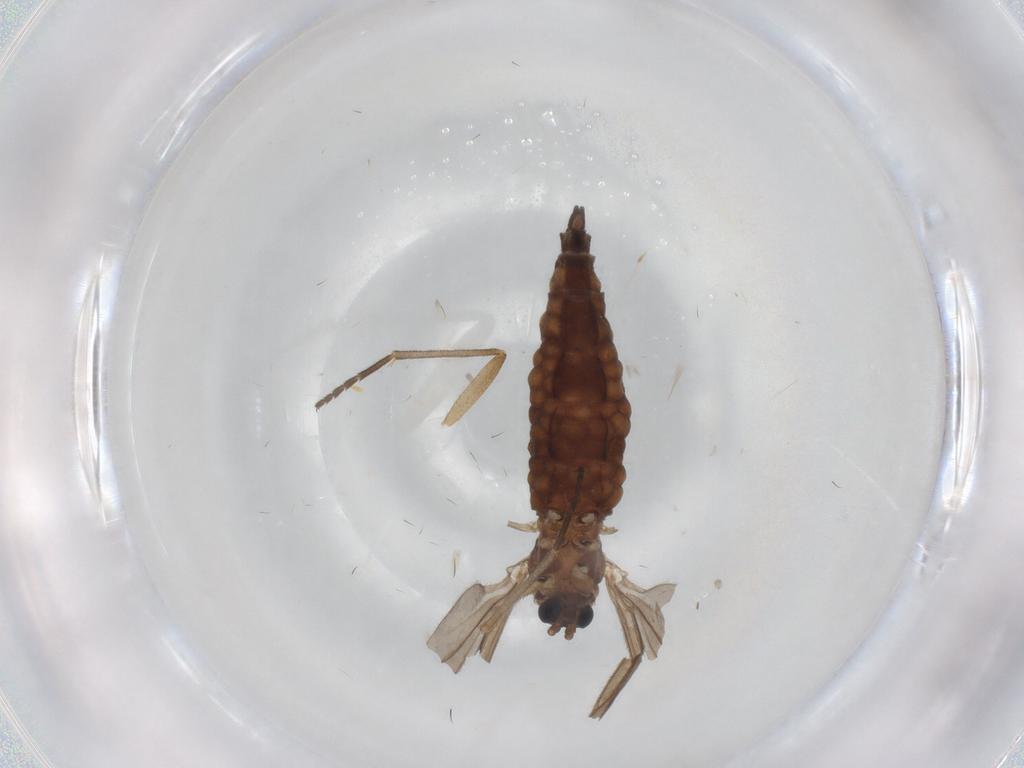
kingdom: Animalia
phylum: Arthropoda
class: Insecta
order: Diptera
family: Sciaridae
